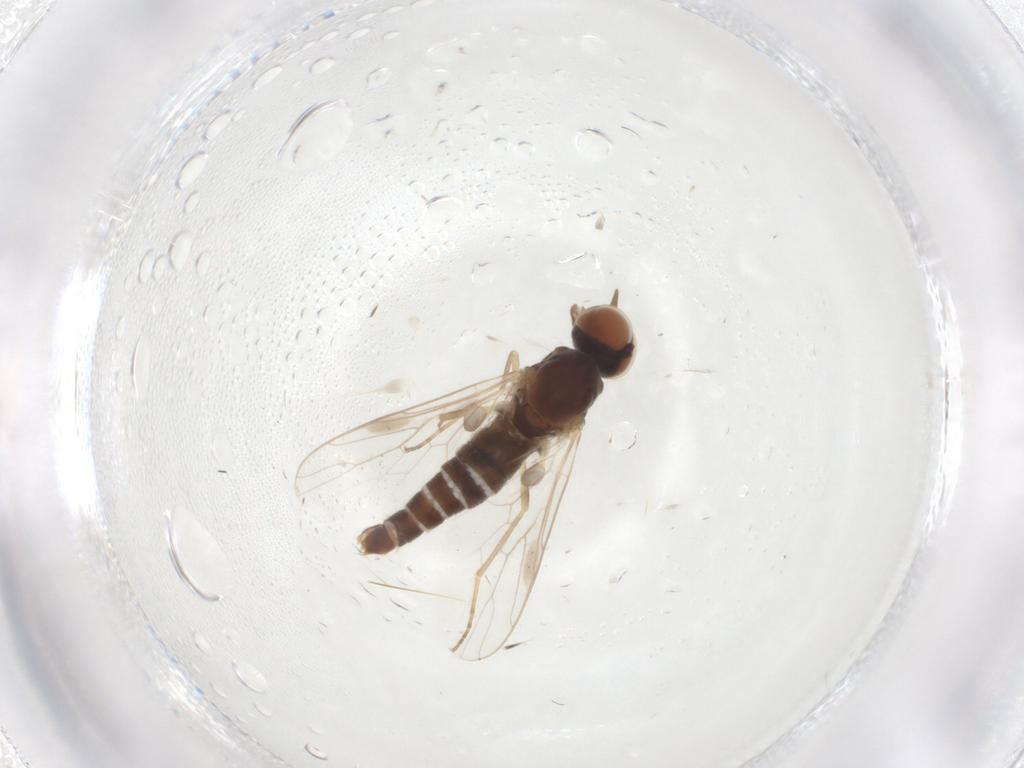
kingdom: Animalia
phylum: Arthropoda
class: Insecta
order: Diptera
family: Scenopinidae
